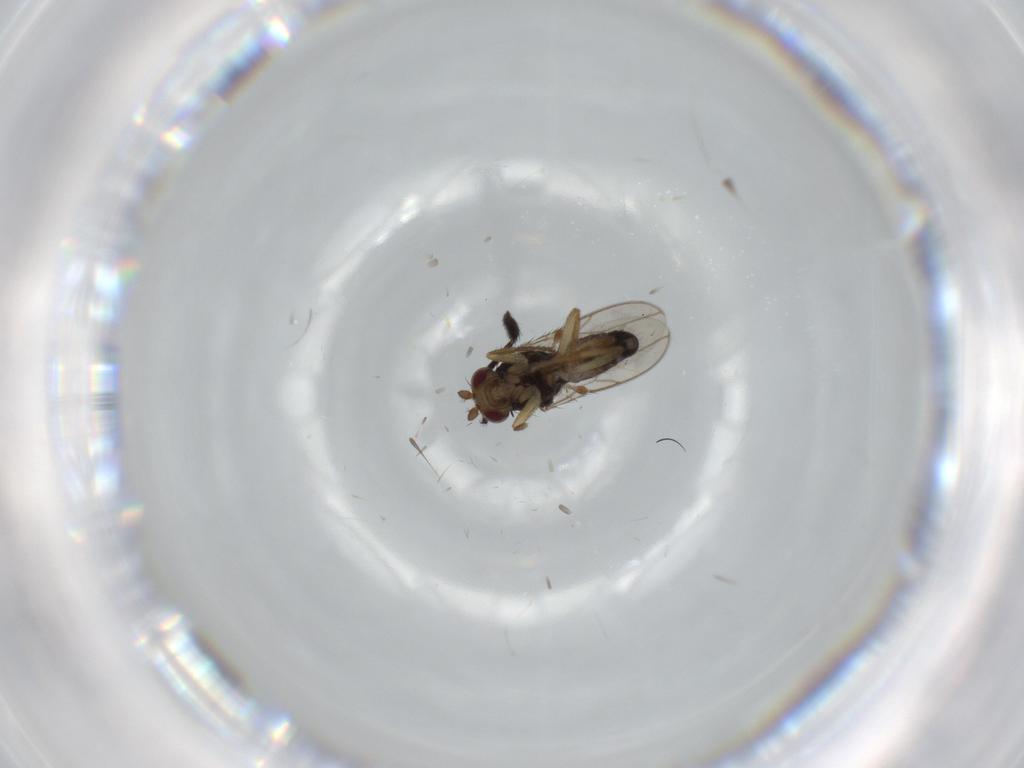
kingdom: Animalia
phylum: Arthropoda
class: Insecta
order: Diptera
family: Sphaeroceridae
